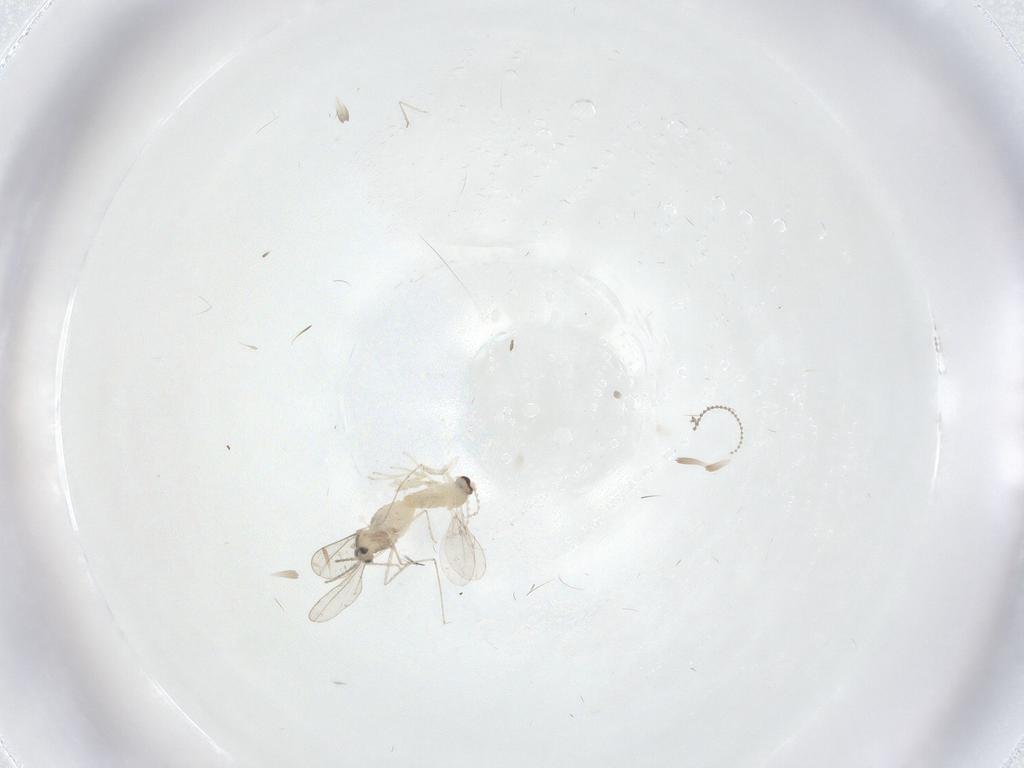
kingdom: Animalia
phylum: Arthropoda
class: Insecta
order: Diptera
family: Cecidomyiidae
